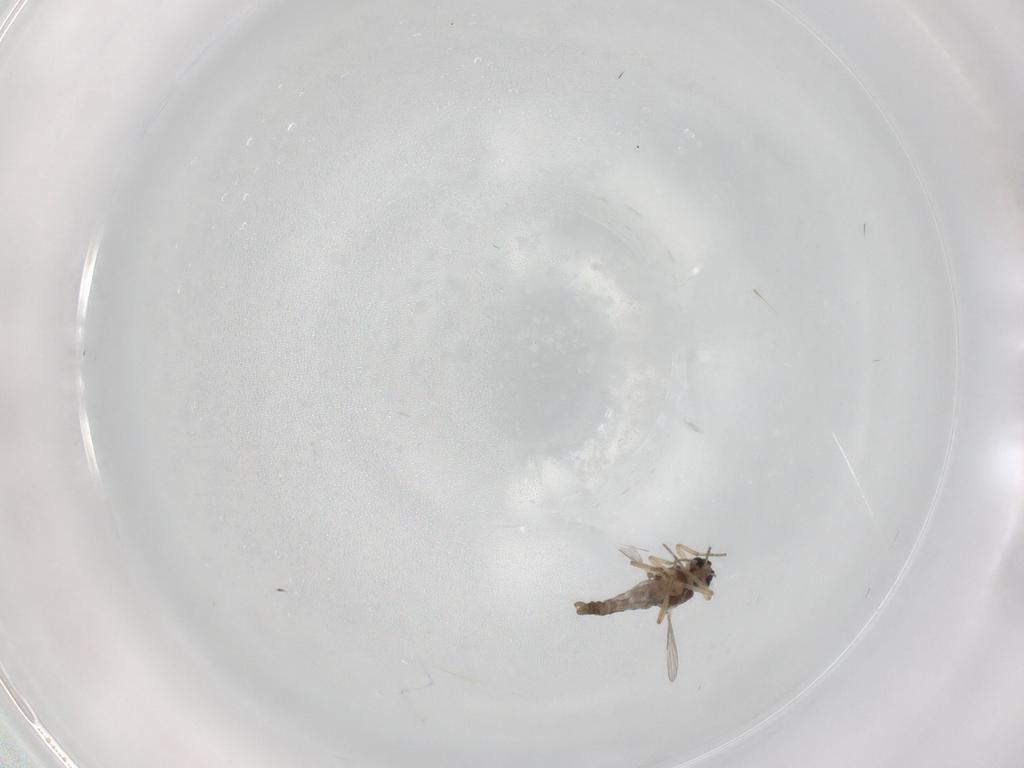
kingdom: Animalia
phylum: Arthropoda
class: Insecta
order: Diptera
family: Ceratopogonidae
